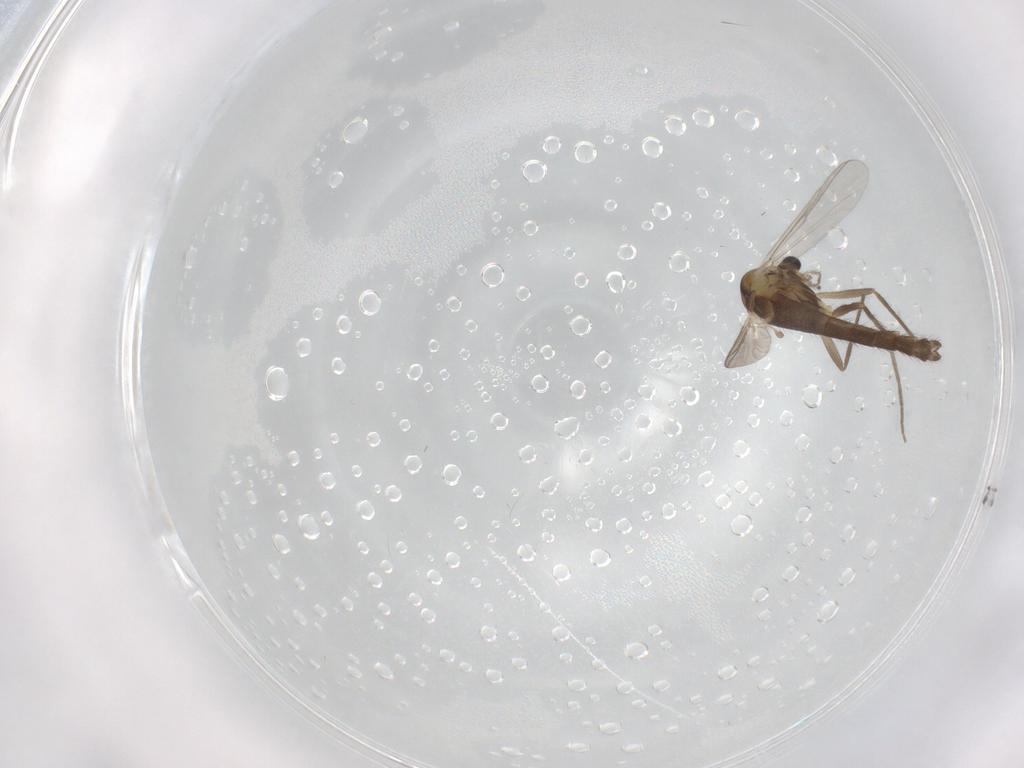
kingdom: Animalia
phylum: Arthropoda
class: Insecta
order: Diptera
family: Chironomidae
